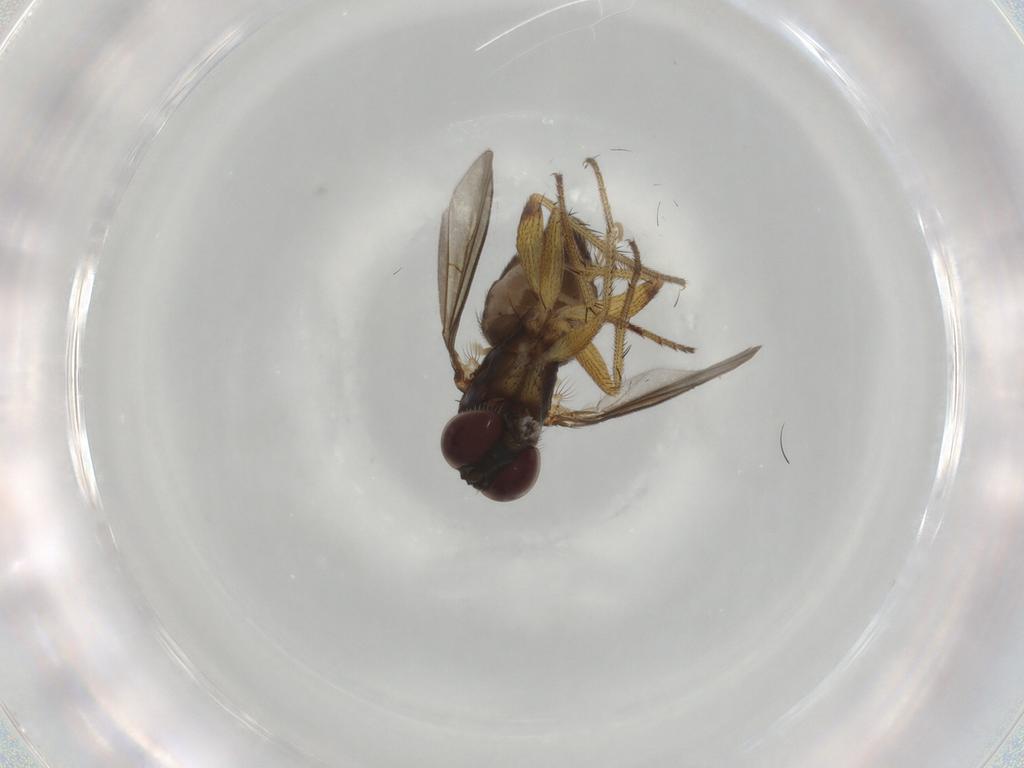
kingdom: Animalia
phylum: Arthropoda
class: Insecta
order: Diptera
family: Dolichopodidae
